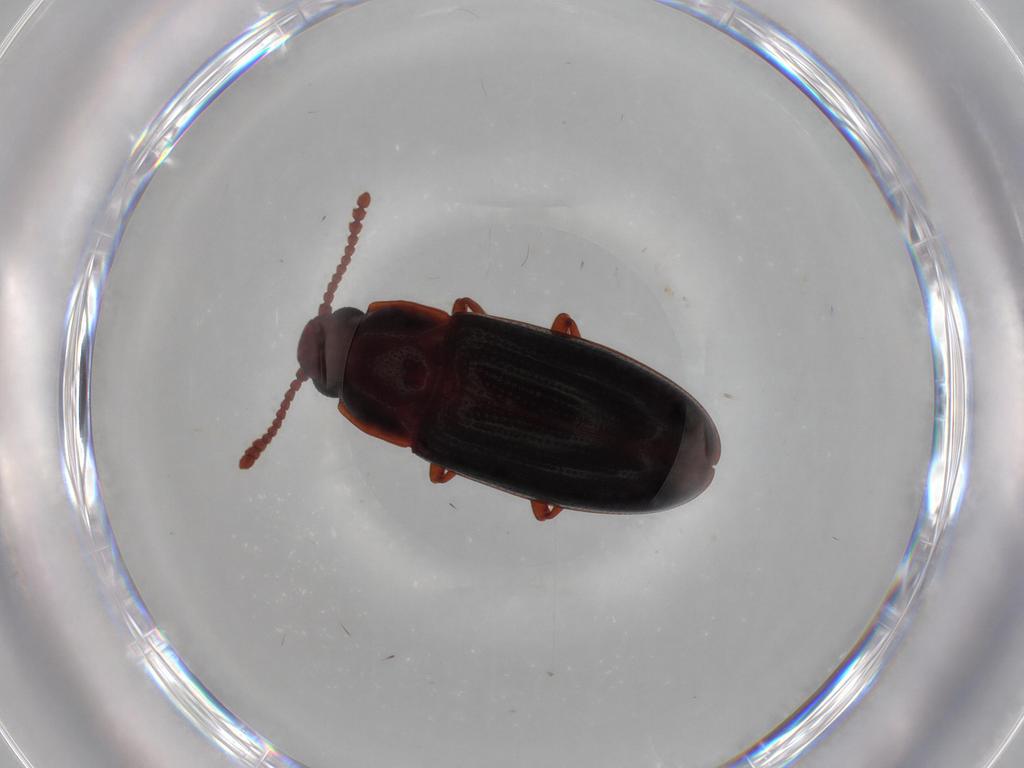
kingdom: Animalia
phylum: Arthropoda
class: Insecta
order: Coleoptera
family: Erotylidae
